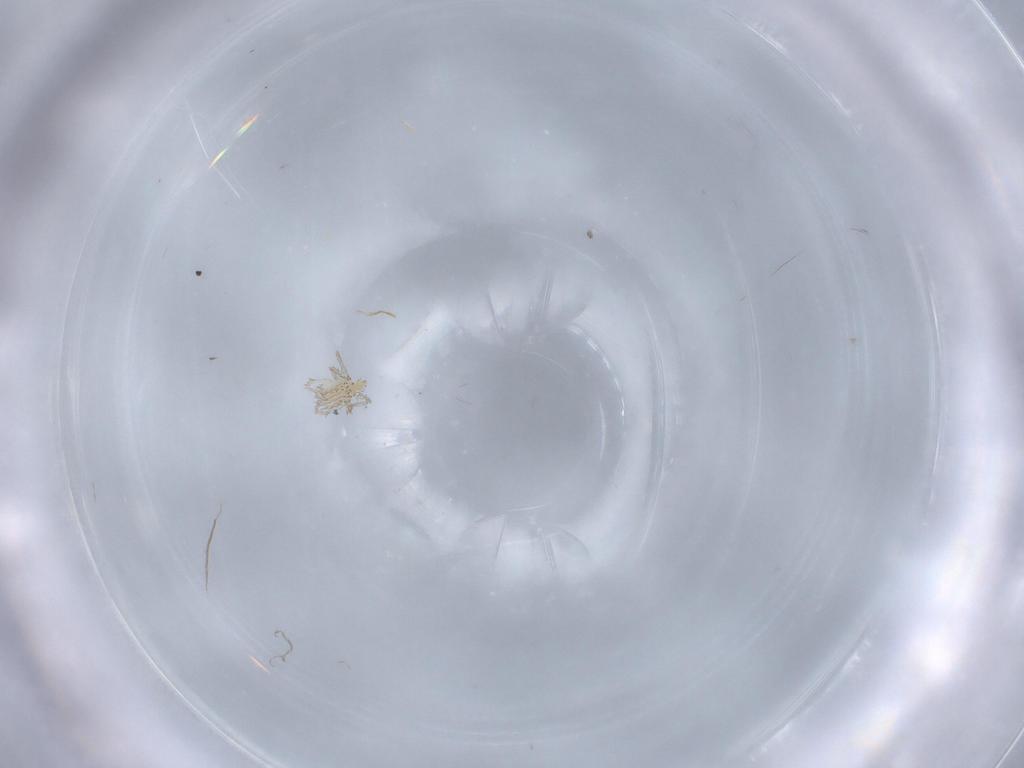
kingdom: Animalia
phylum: Arthropoda
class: Arachnida
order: Trombidiformes
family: Erythraeidae
